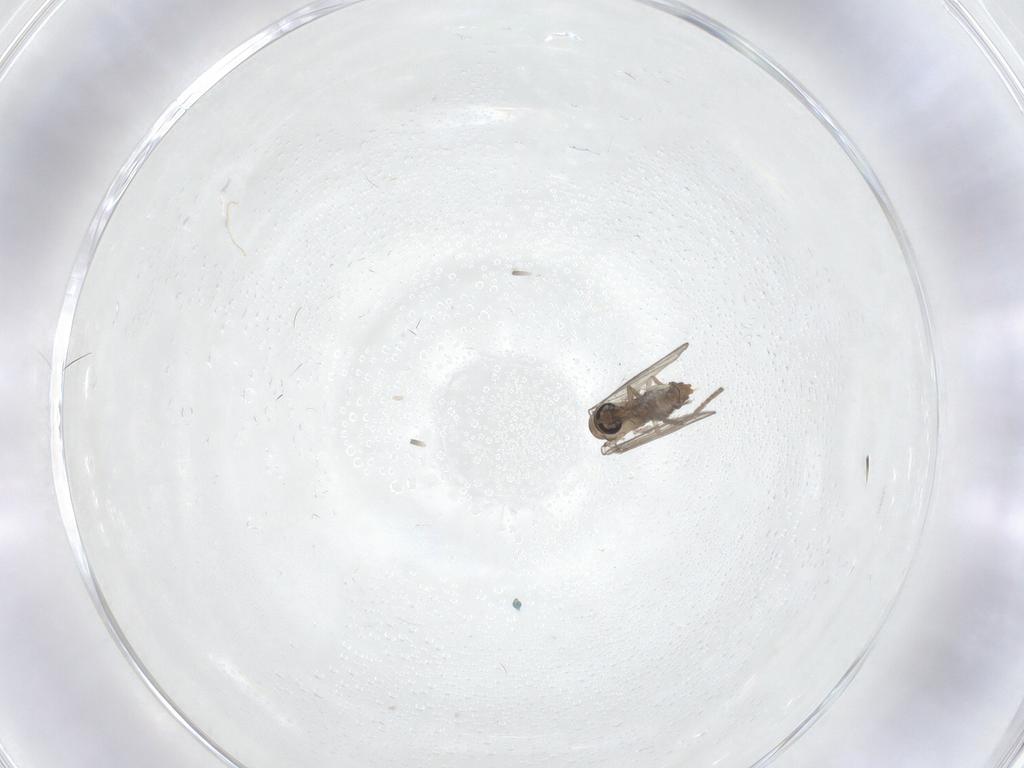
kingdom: Animalia
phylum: Arthropoda
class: Insecta
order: Diptera
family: Psychodidae
